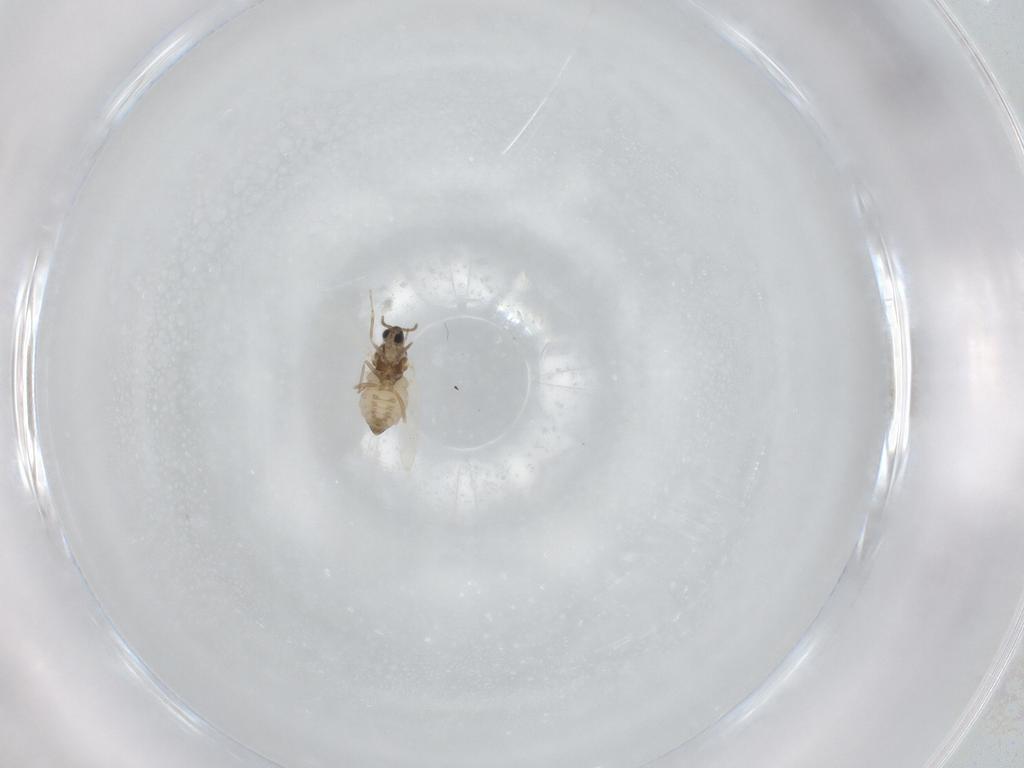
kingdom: Animalia
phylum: Arthropoda
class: Insecta
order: Diptera
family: Cecidomyiidae
